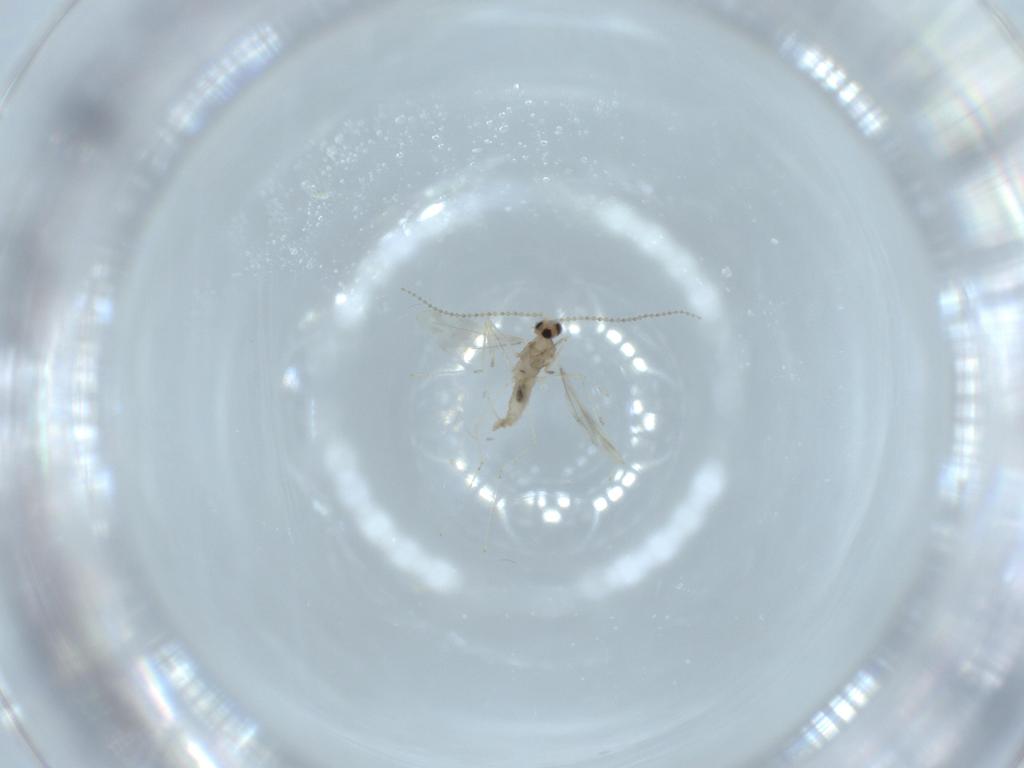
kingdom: Animalia
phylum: Arthropoda
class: Insecta
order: Diptera
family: Cecidomyiidae
